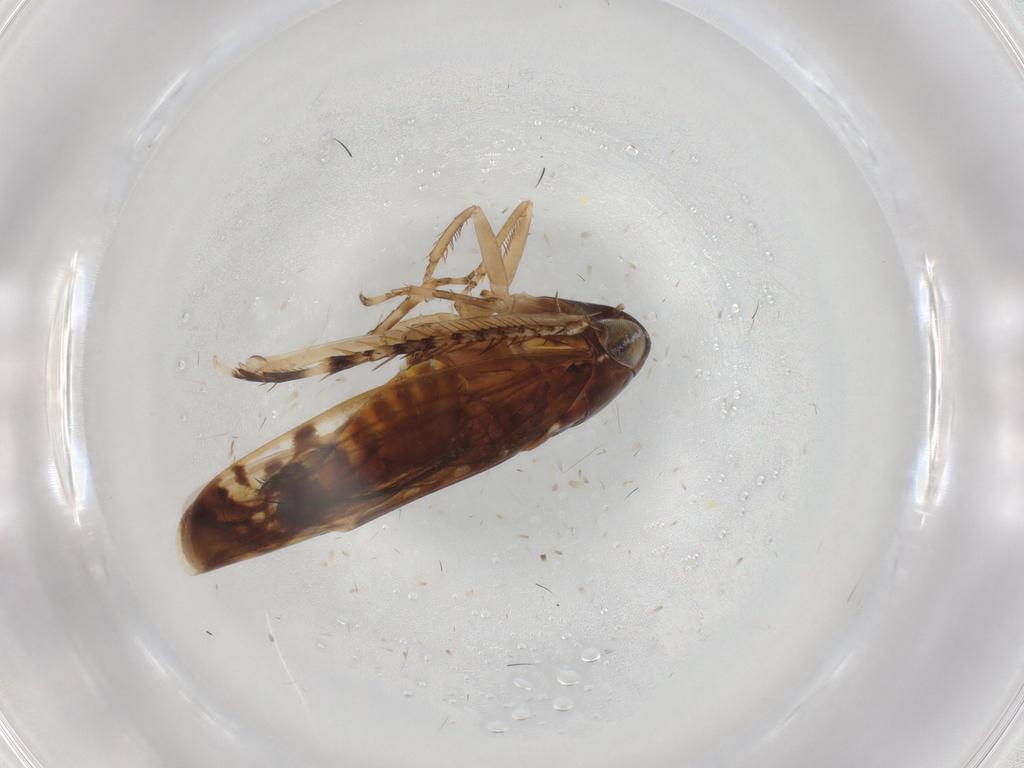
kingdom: Animalia
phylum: Arthropoda
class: Insecta
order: Hemiptera
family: Cicadellidae
